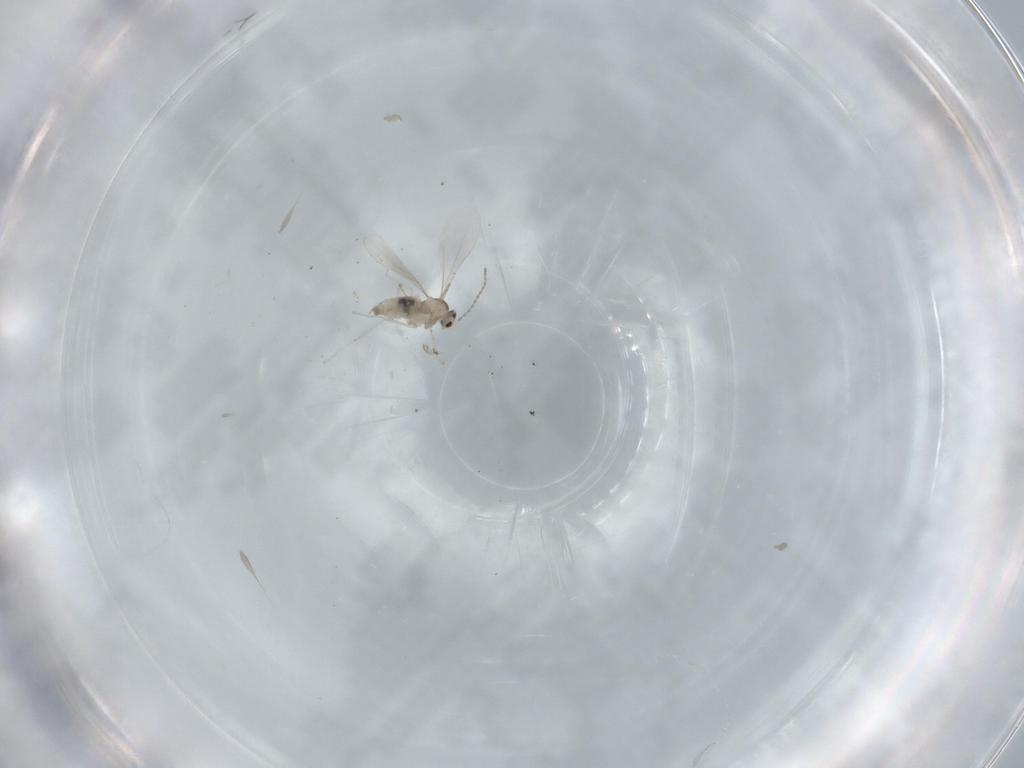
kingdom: Animalia
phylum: Arthropoda
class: Insecta
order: Diptera
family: Cecidomyiidae
